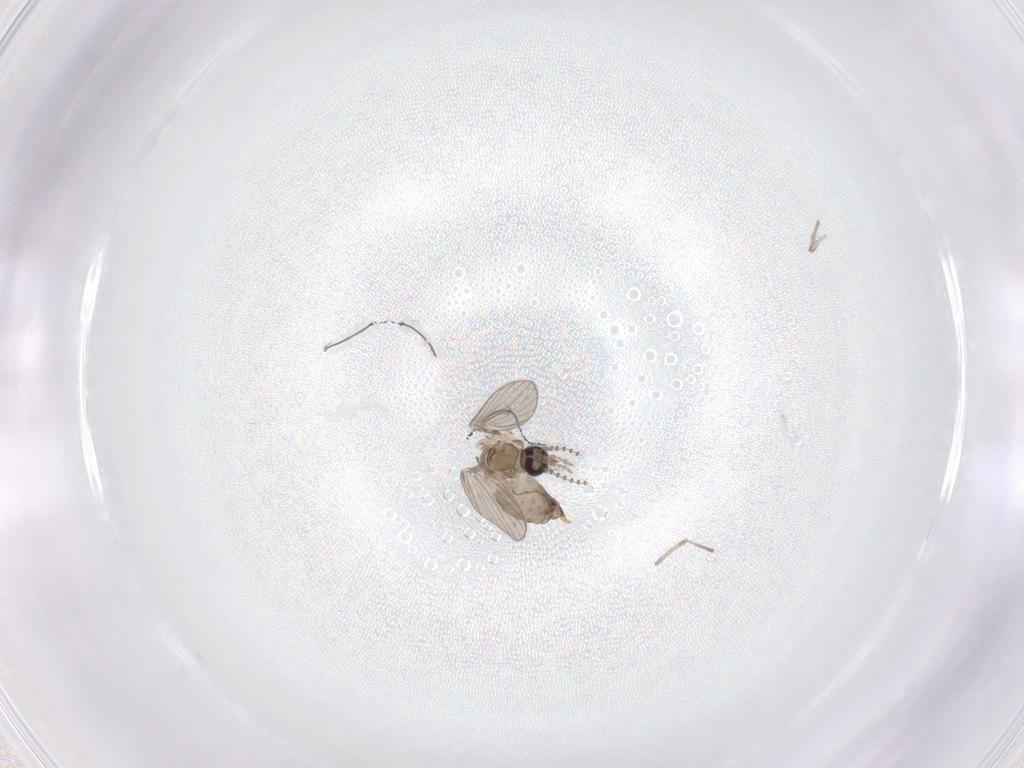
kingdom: Animalia
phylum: Arthropoda
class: Insecta
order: Diptera
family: Psychodidae
